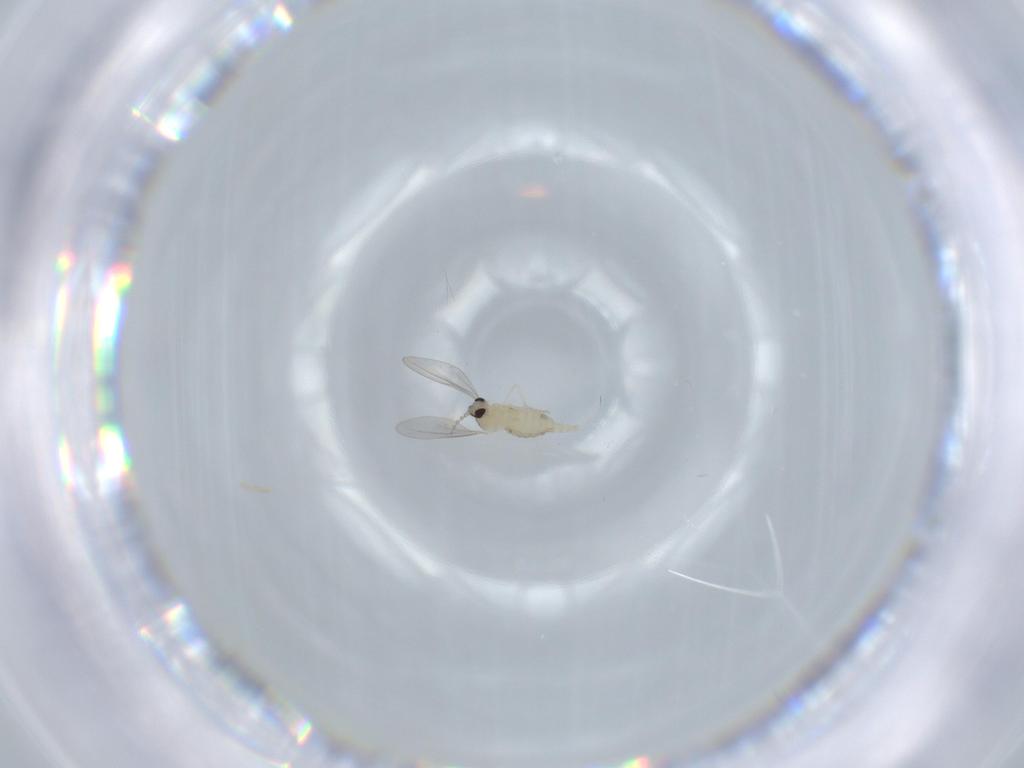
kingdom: Animalia
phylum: Arthropoda
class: Insecta
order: Diptera
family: Cecidomyiidae
